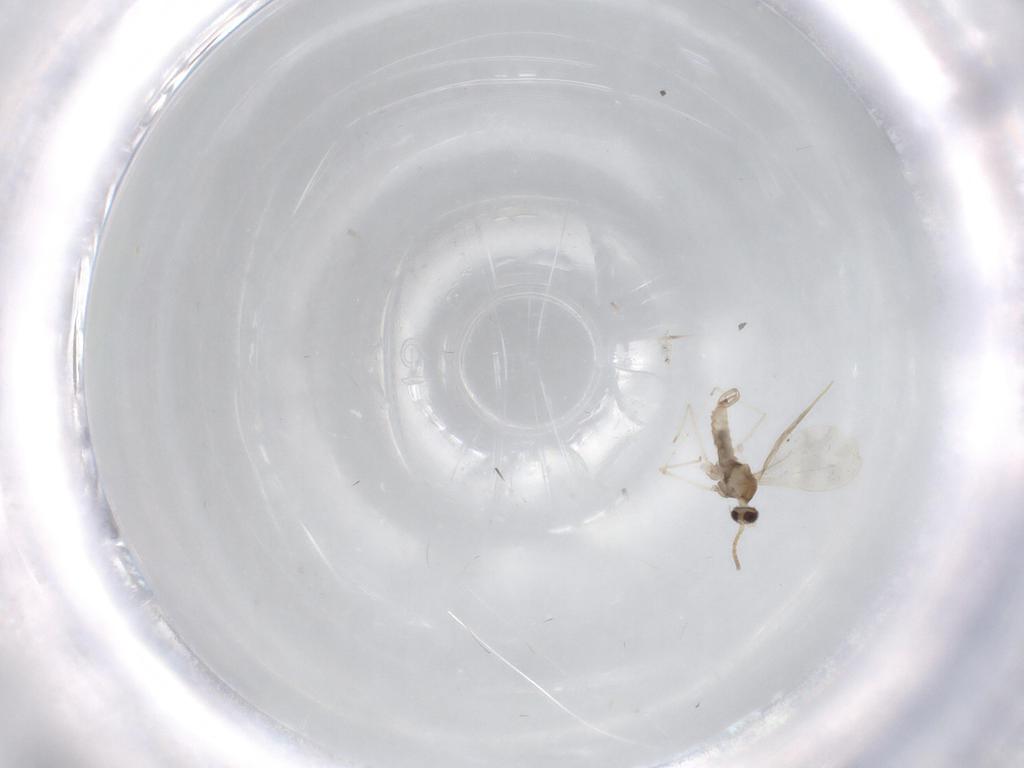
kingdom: Animalia
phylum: Arthropoda
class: Insecta
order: Diptera
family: Cecidomyiidae
